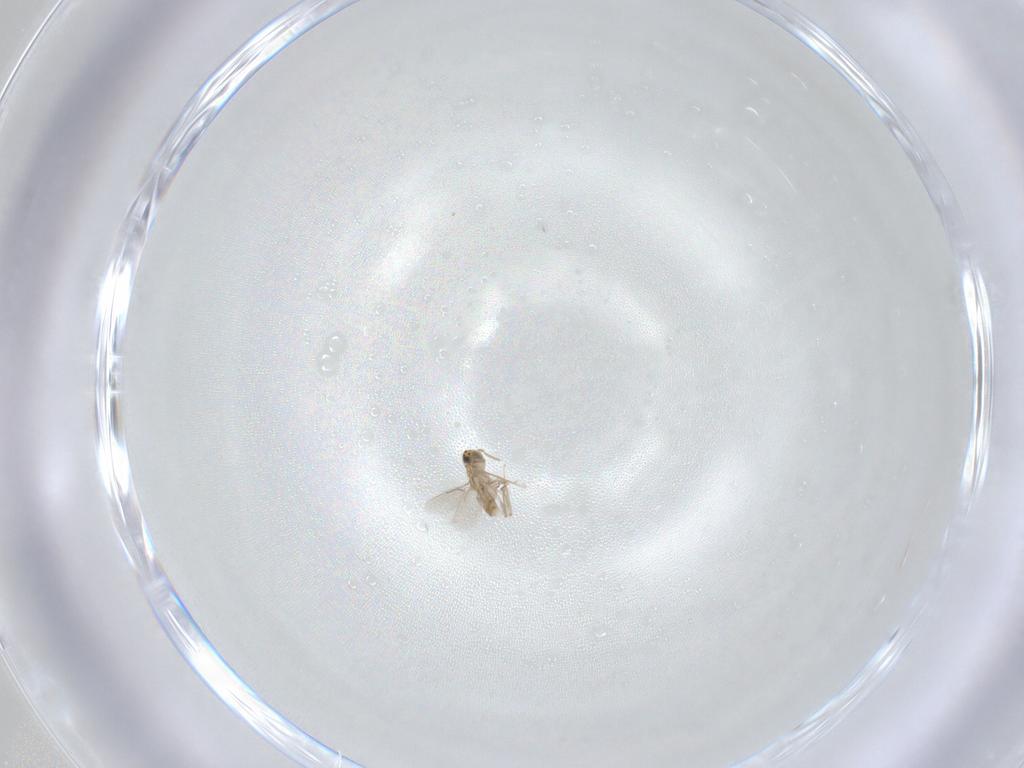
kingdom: Animalia
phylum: Arthropoda
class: Insecta
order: Hymenoptera
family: Aphelinidae
